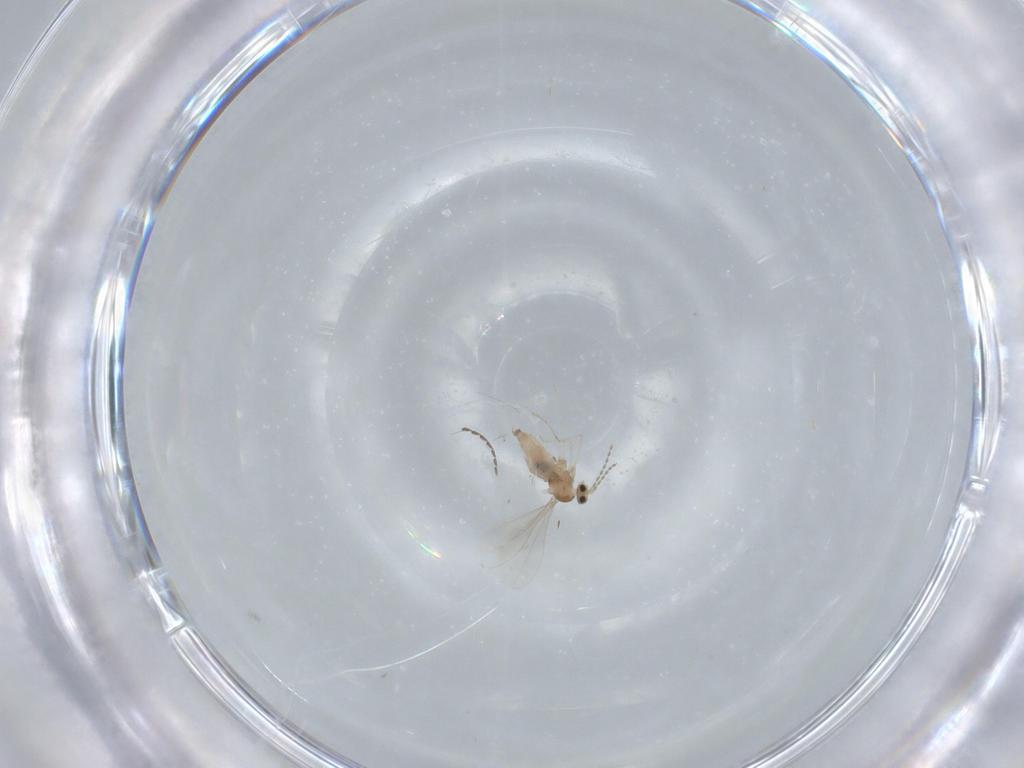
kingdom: Animalia
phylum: Arthropoda
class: Insecta
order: Diptera
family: Cecidomyiidae
